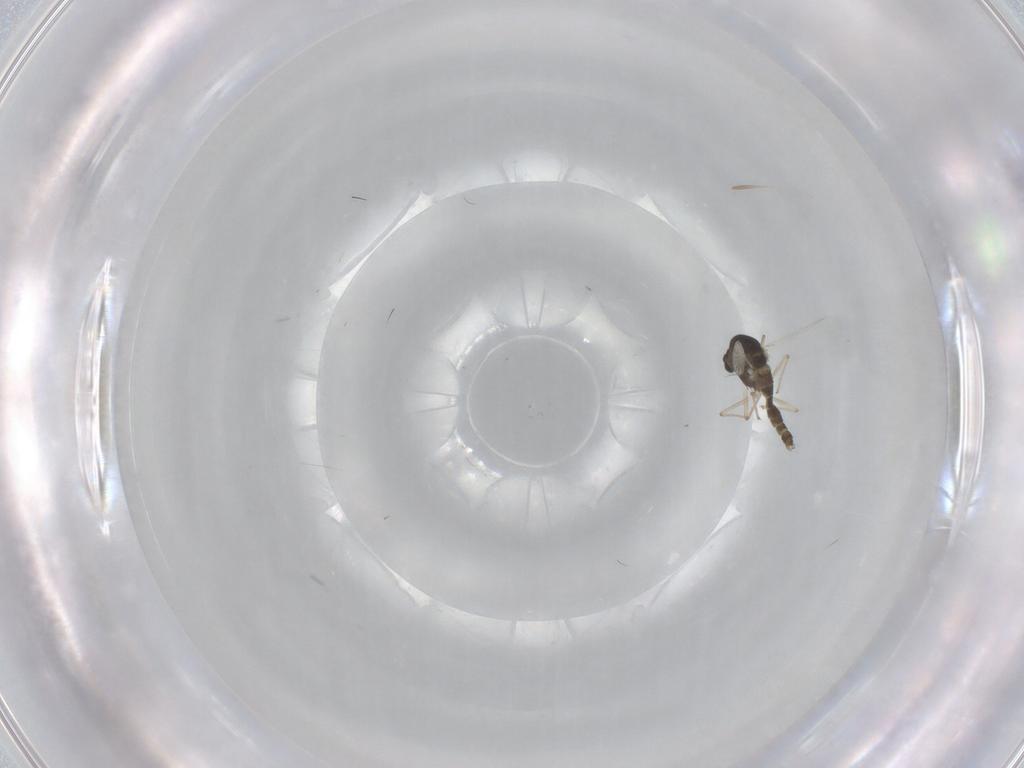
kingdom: Animalia
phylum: Arthropoda
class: Insecta
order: Diptera
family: Chironomidae
